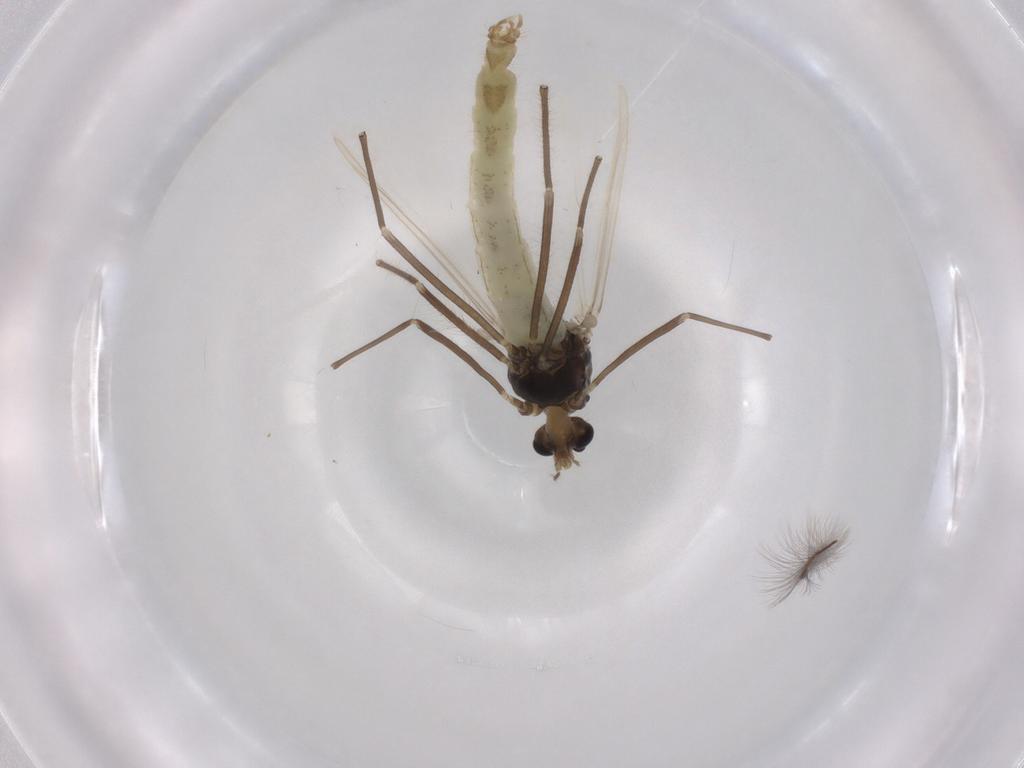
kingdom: Animalia
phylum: Arthropoda
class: Insecta
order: Diptera
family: Chironomidae
